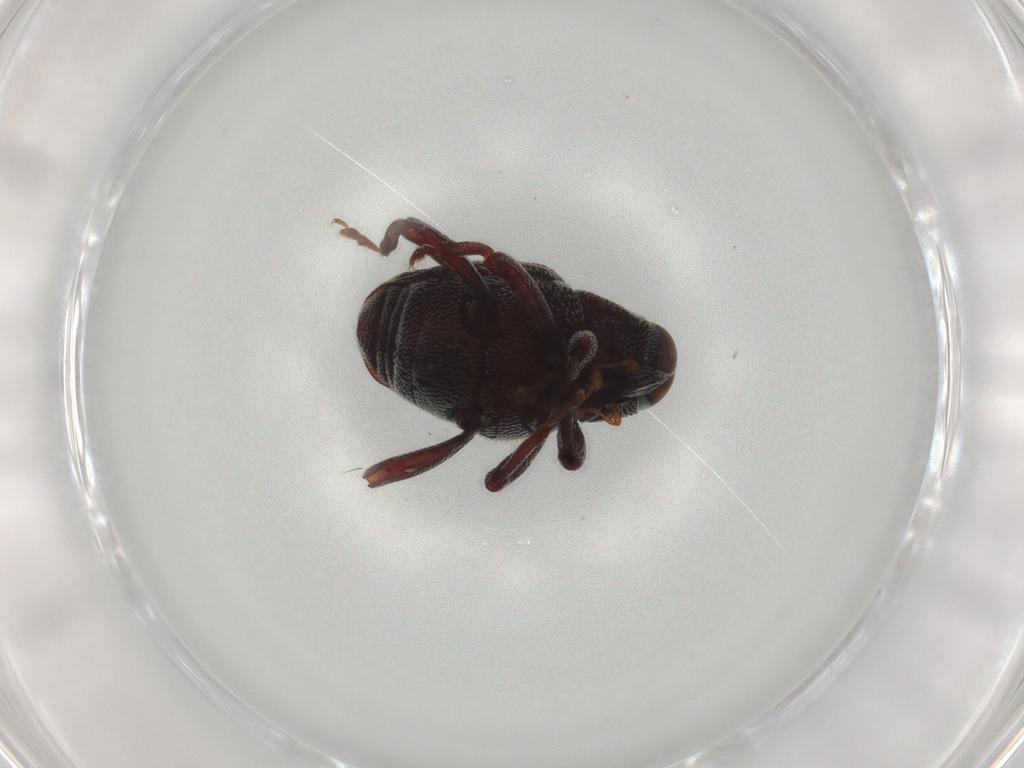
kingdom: Animalia
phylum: Arthropoda
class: Insecta
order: Coleoptera
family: Curculionidae
